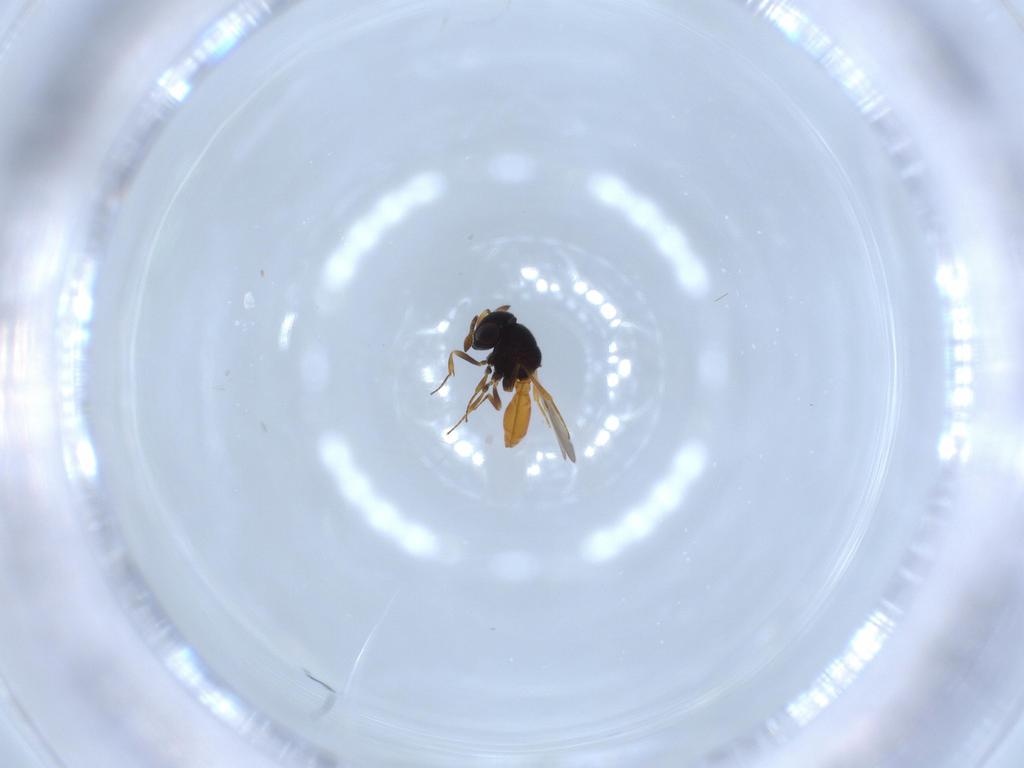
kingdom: Animalia
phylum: Arthropoda
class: Insecta
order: Hymenoptera
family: Scelionidae
